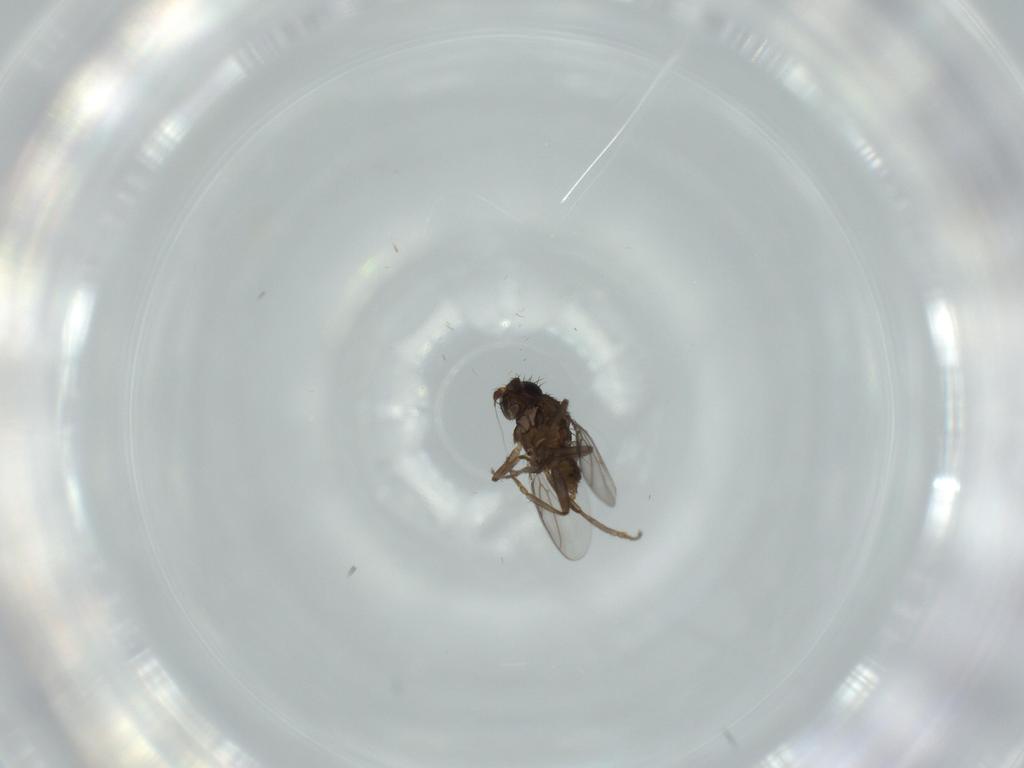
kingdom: Animalia
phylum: Arthropoda
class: Insecta
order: Diptera
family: Sphaeroceridae
